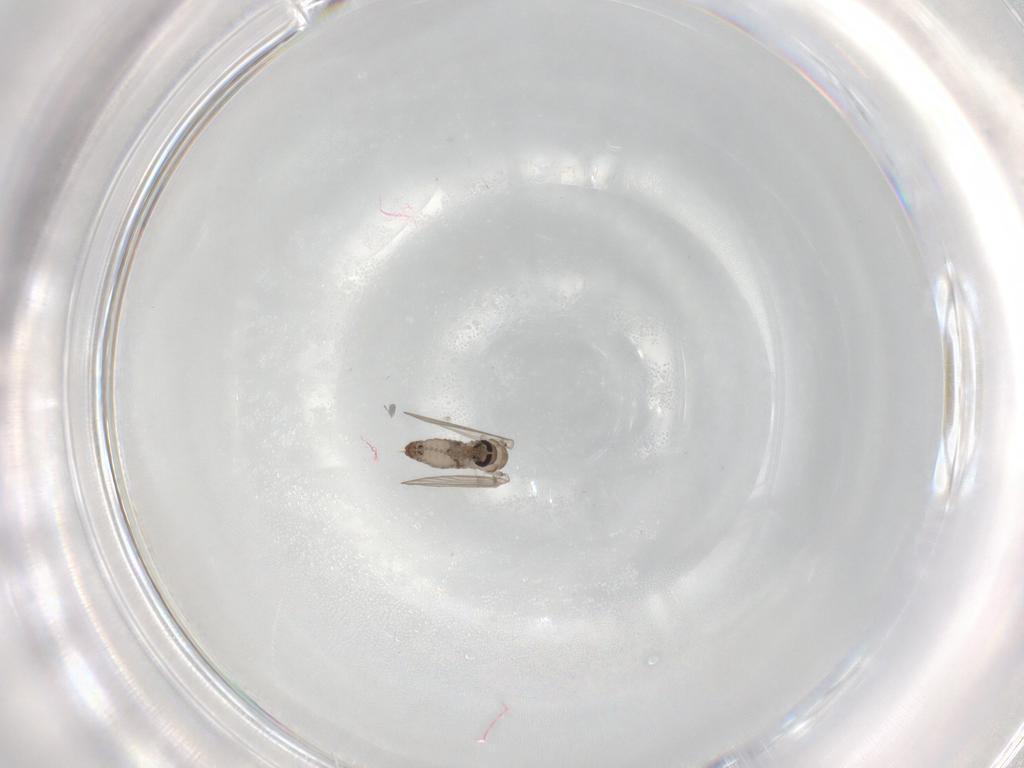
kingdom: Animalia
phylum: Arthropoda
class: Insecta
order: Diptera
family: Psychodidae
